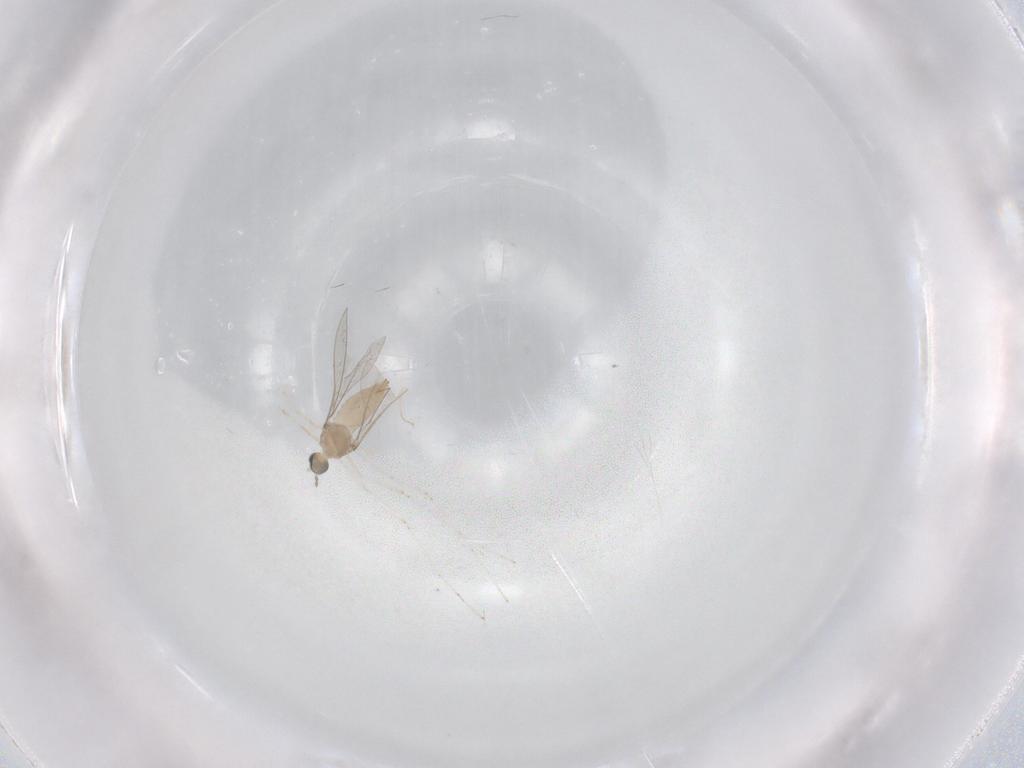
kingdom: Animalia
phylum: Arthropoda
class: Insecta
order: Diptera
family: Cecidomyiidae
